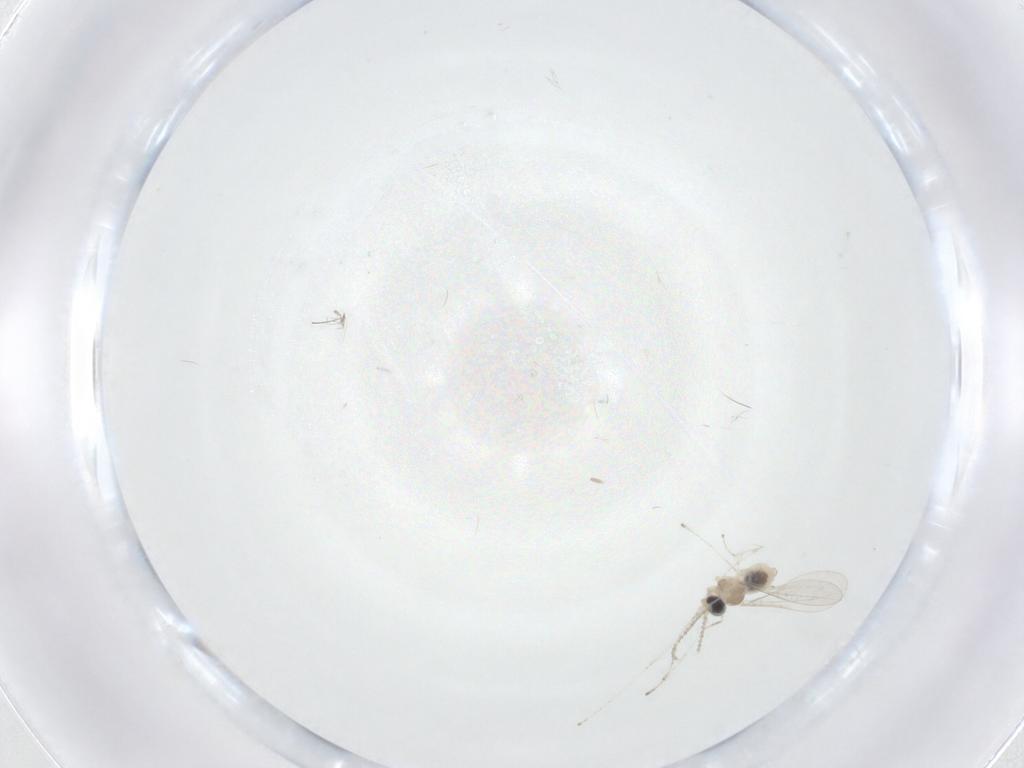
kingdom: Animalia
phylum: Arthropoda
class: Insecta
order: Diptera
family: Cecidomyiidae
